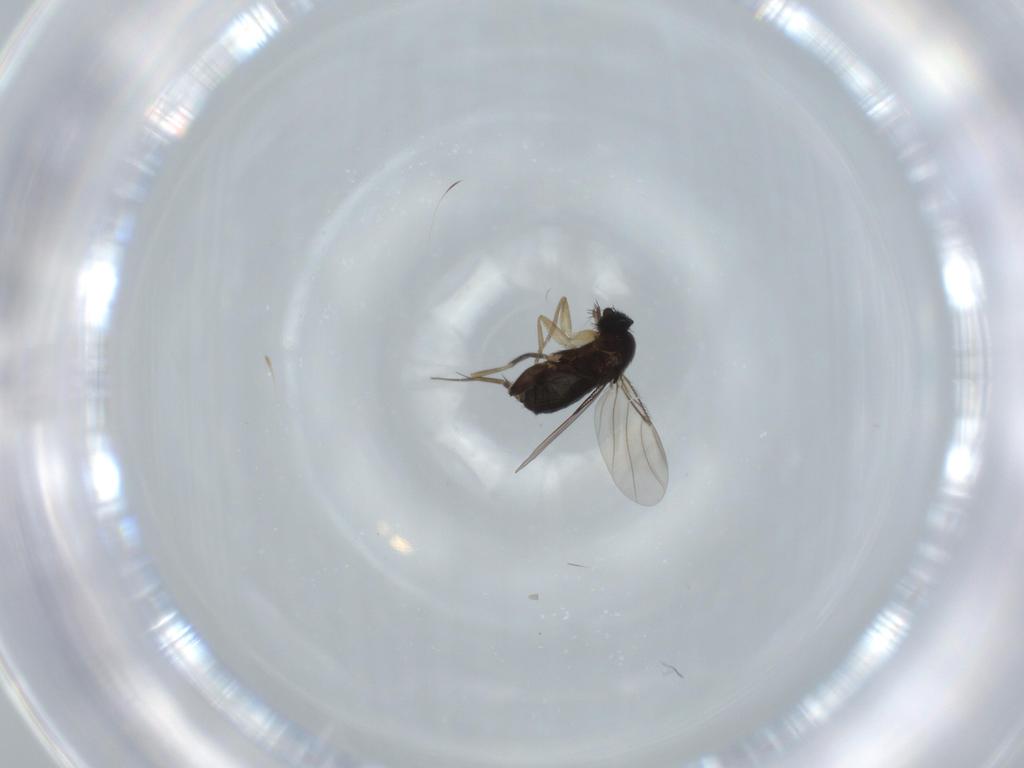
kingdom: Animalia
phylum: Arthropoda
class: Insecta
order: Diptera
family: Phoridae
